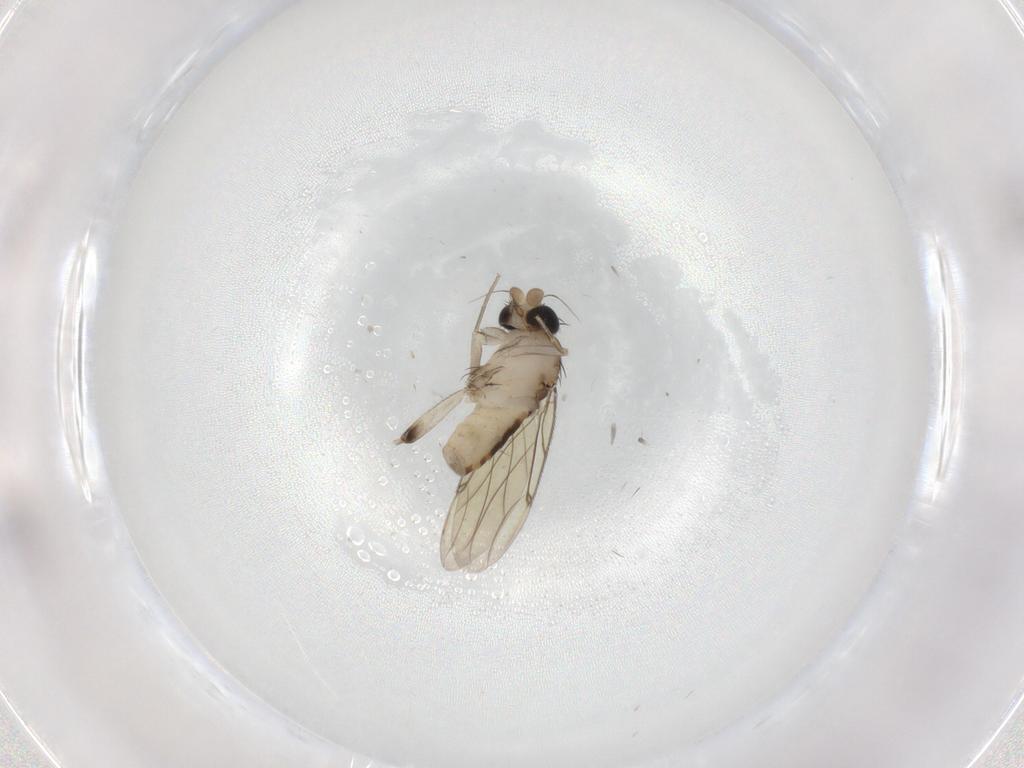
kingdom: Animalia
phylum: Arthropoda
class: Insecta
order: Diptera
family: Phoridae
